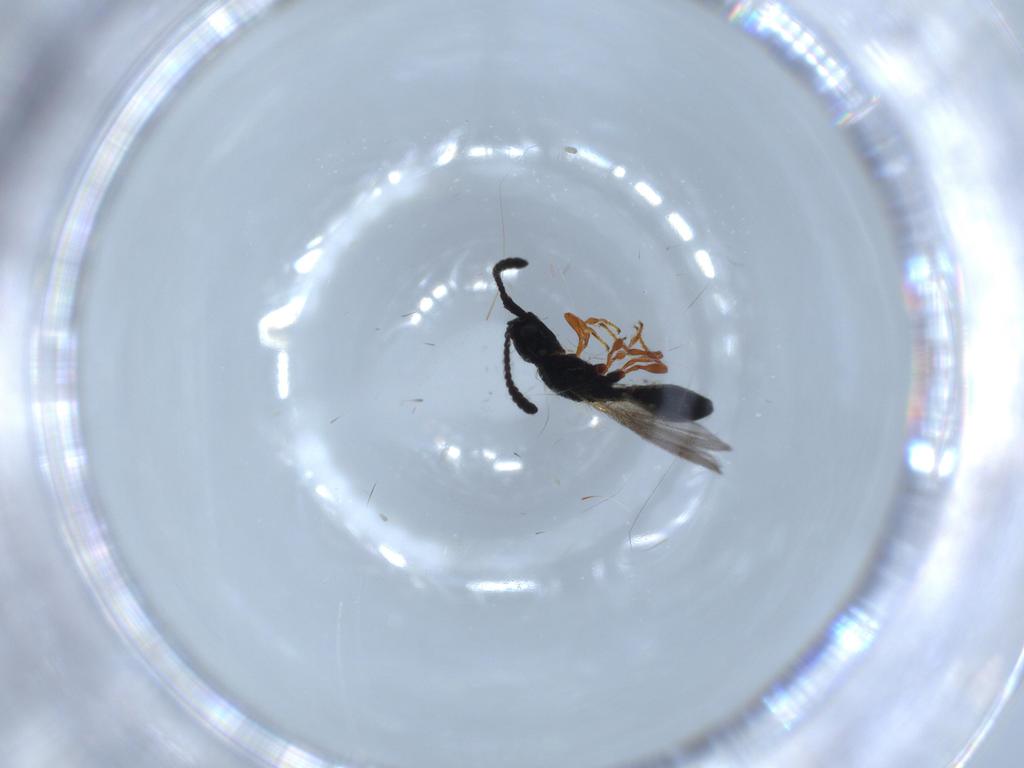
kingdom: Animalia
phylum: Arthropoda
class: Insecta
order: Hymenoptera
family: Diapriidae
